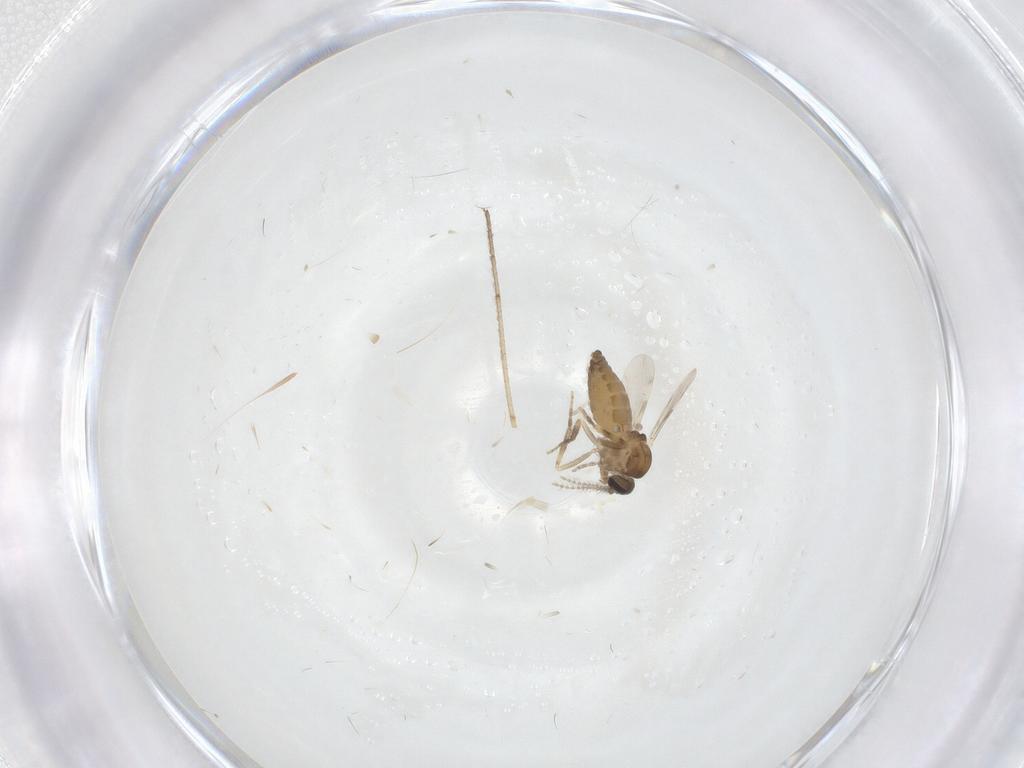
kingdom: Animalia
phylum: Arthropoda
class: Insecta
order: Diptera
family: Cecidomyiidae
